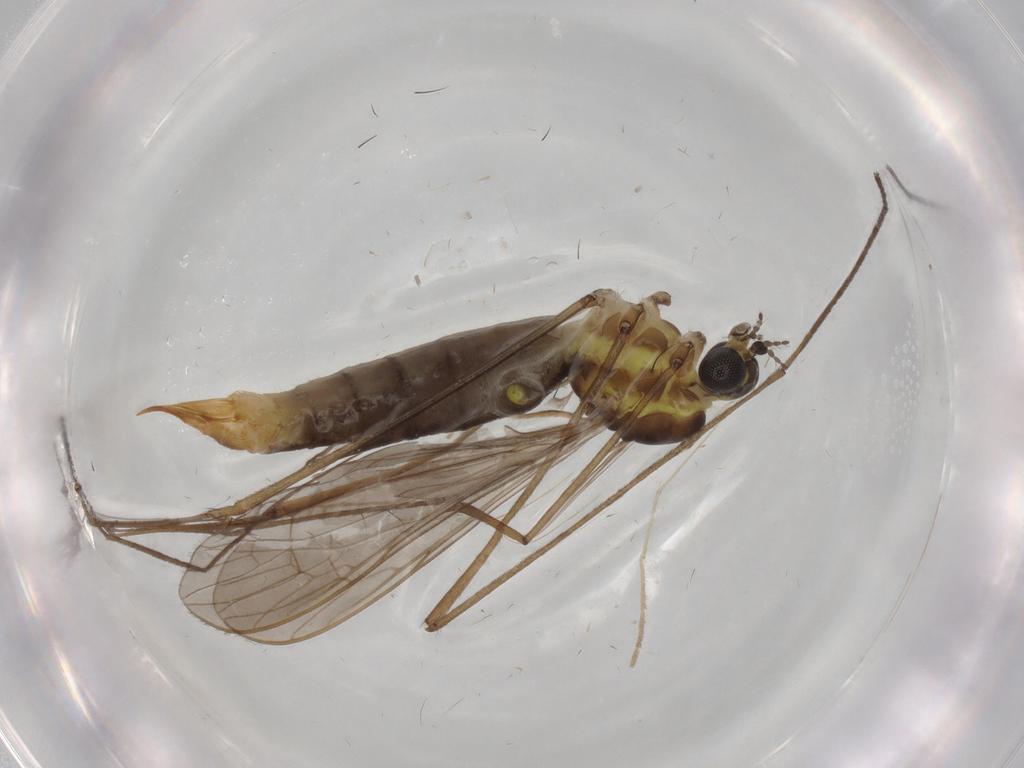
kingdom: Animalia
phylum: Arthropoda
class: Insecta
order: Diptera
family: Limoniidae
